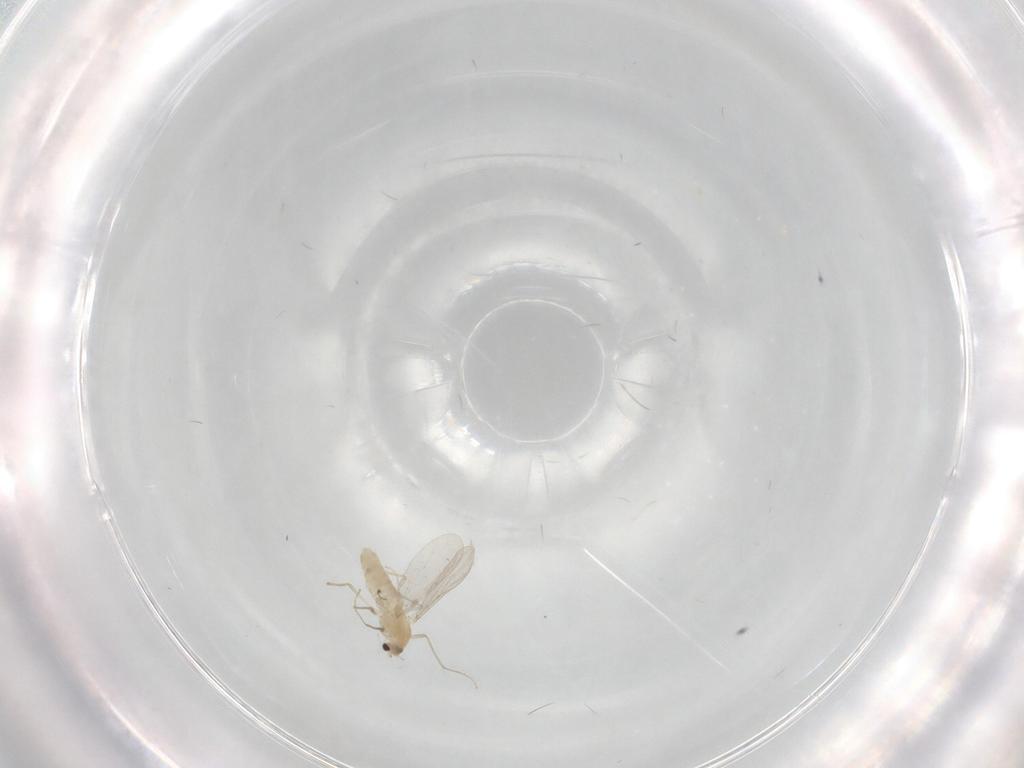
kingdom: Animalia
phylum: Arthropoda
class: Insecta
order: Diptera
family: Chironomidae
